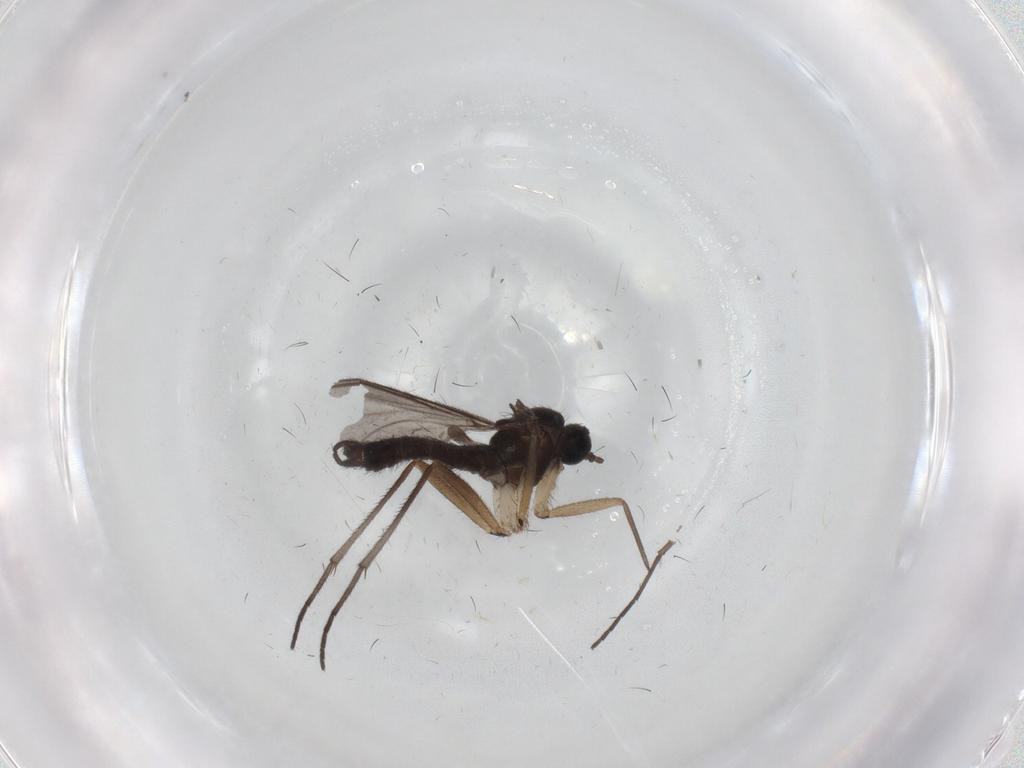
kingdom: Animalia
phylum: Arthropoda
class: Insecta
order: Diptera
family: Sciaridae
